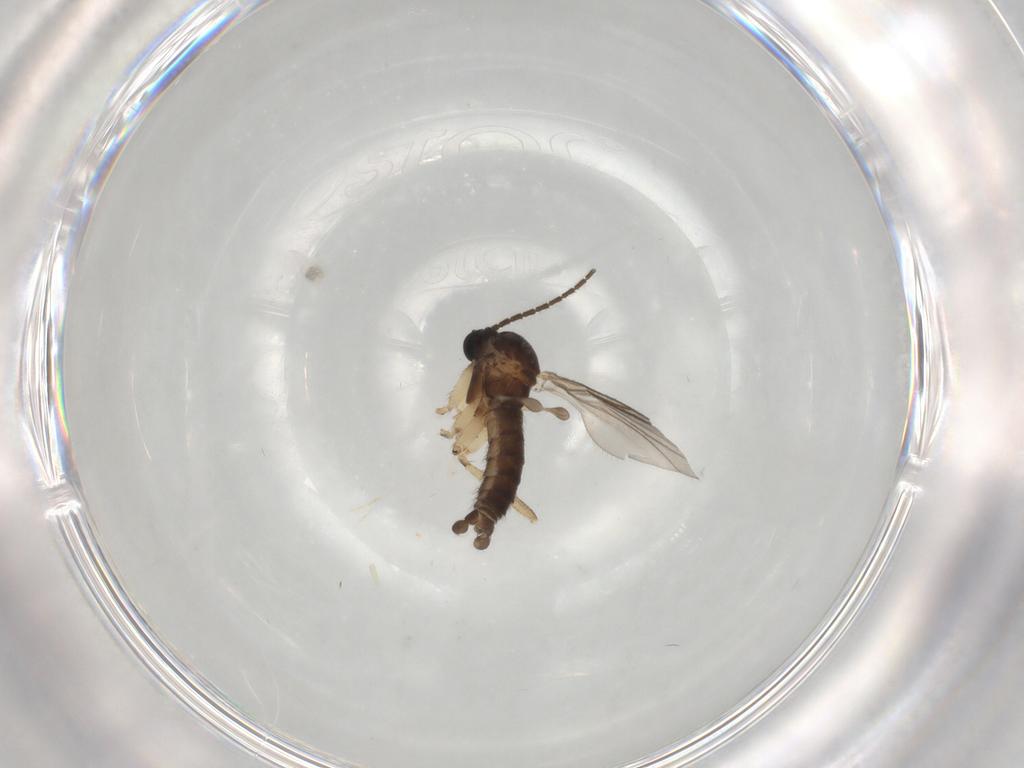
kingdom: Animalia
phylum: Arthropoda
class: Insecta
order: Diptera
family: Sciaridae
